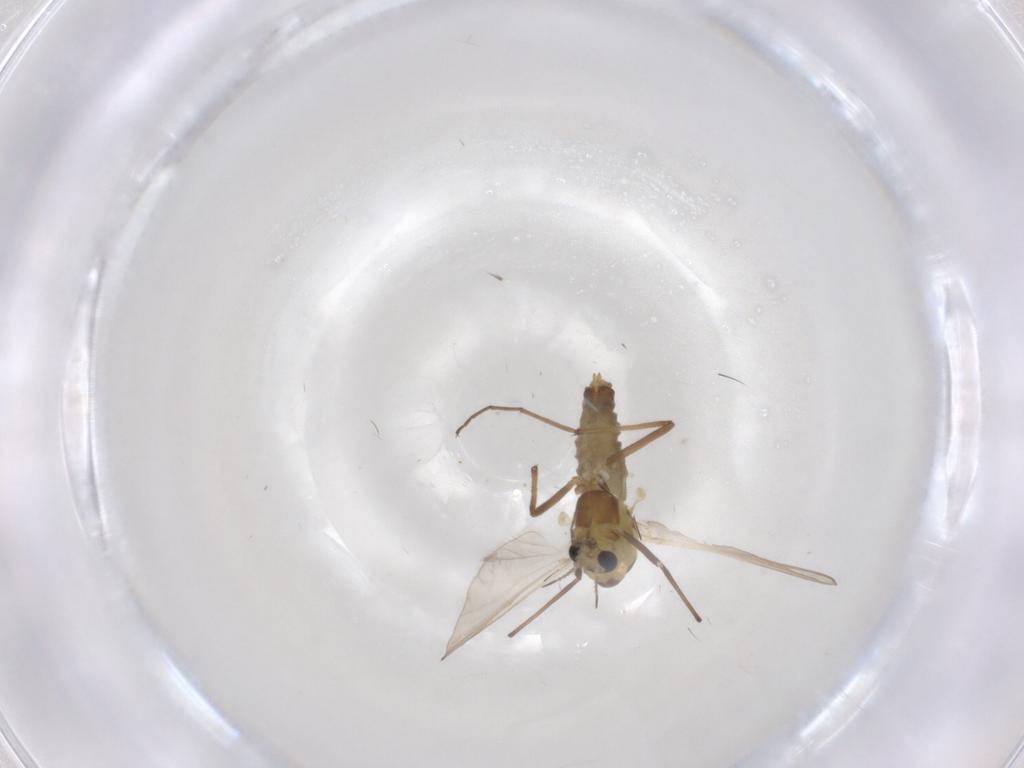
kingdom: Animalia
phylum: Arthropoda
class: Insecta
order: Diptera
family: Chironomidae
